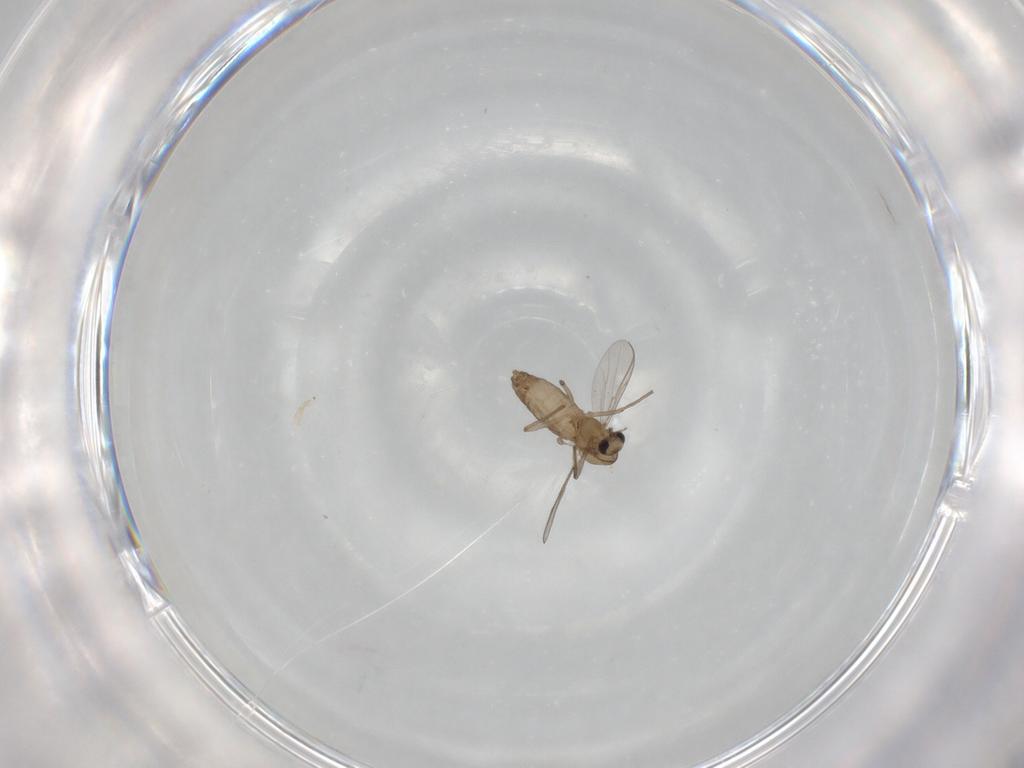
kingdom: Animalia
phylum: Arthropoda
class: Insecta
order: Diptera
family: Chironomidae
